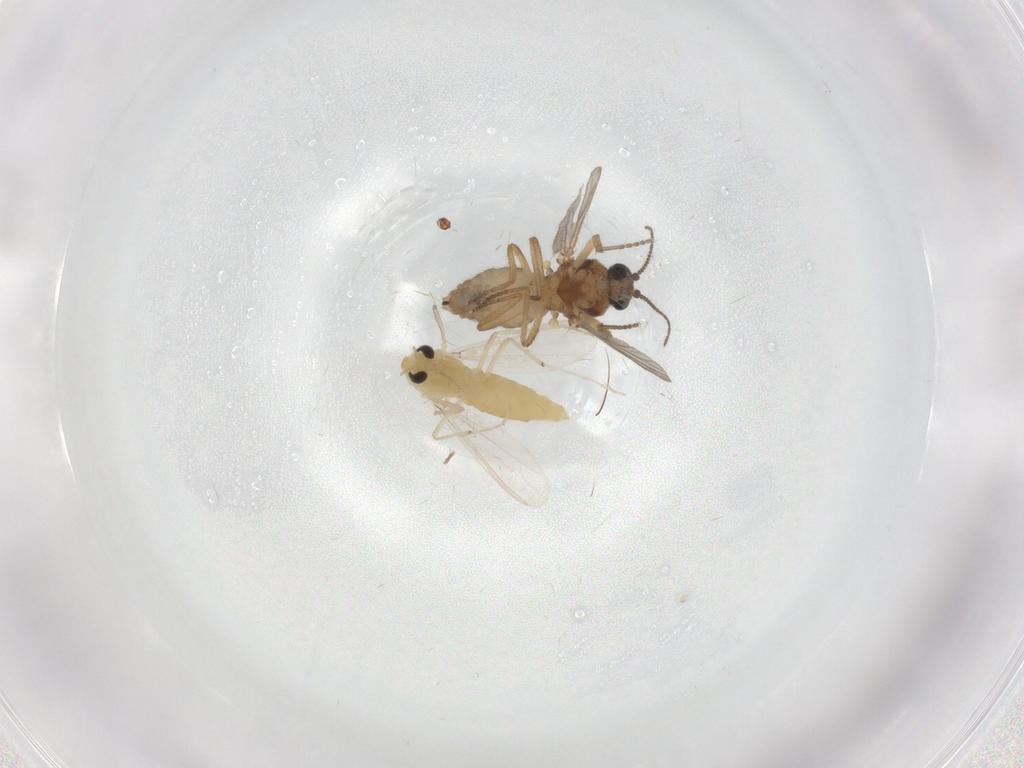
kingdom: Animalia
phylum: Arthropoda
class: Insecta
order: Diptera
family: Ceratopogonidae
